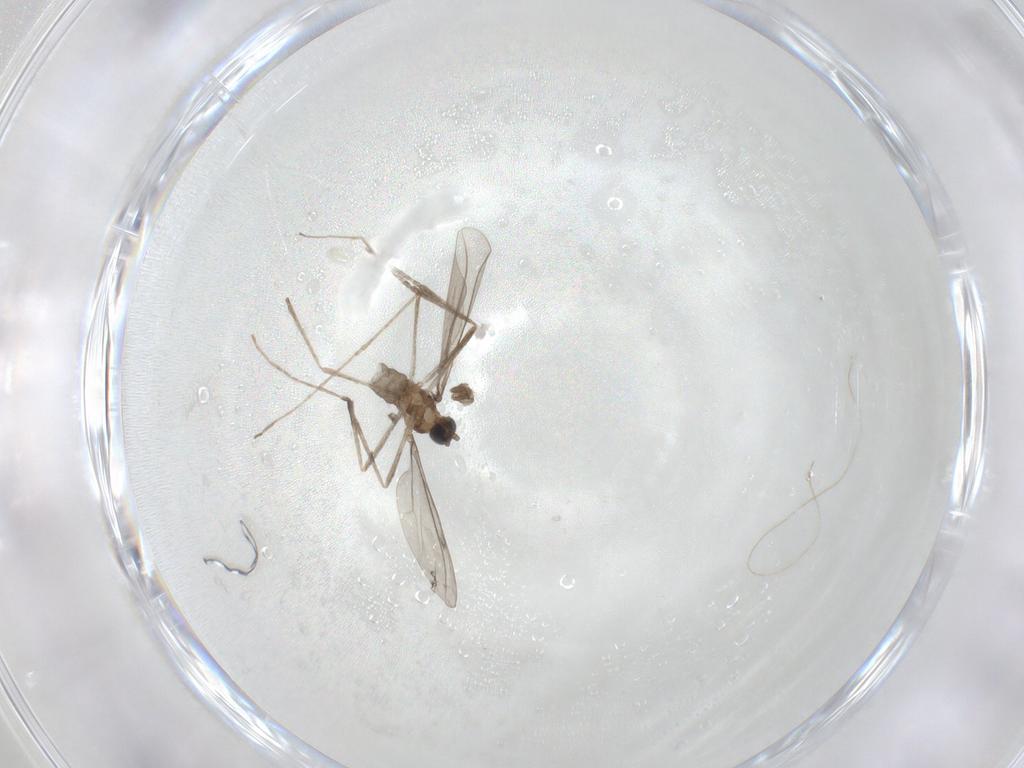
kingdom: Animalia
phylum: Arthropoda
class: Insecta
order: Diptera
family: Cecidomyiidae
